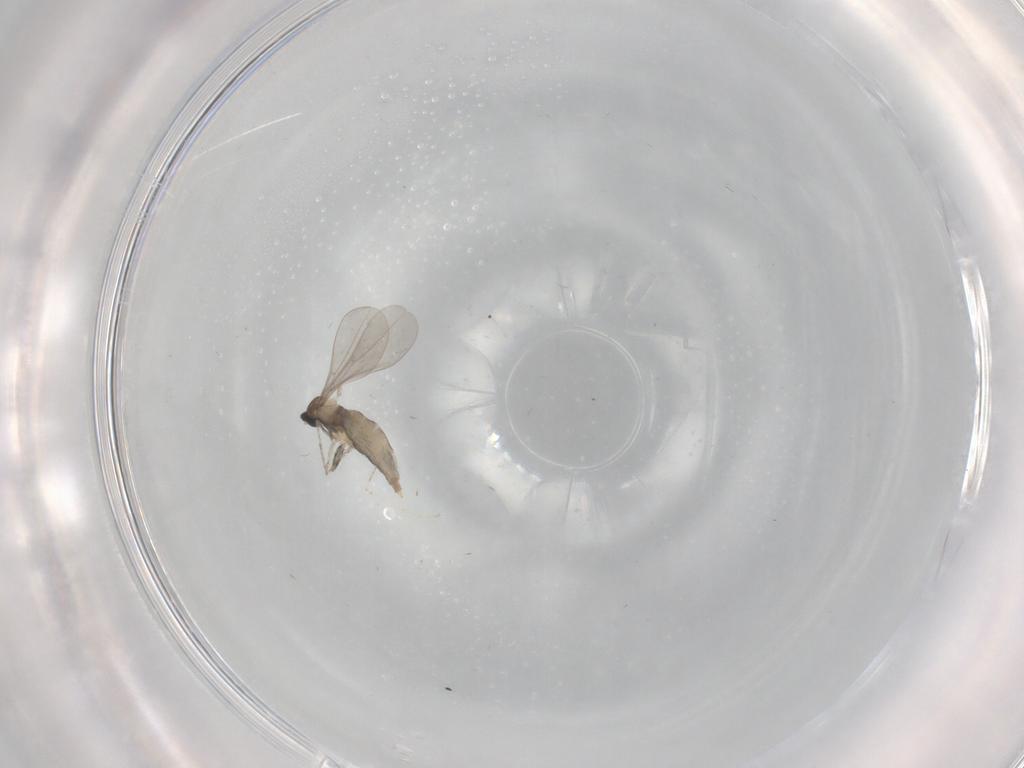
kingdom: Animalia
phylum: Arthropoda
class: Insecta
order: Diptera
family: Cecidomyiidae
